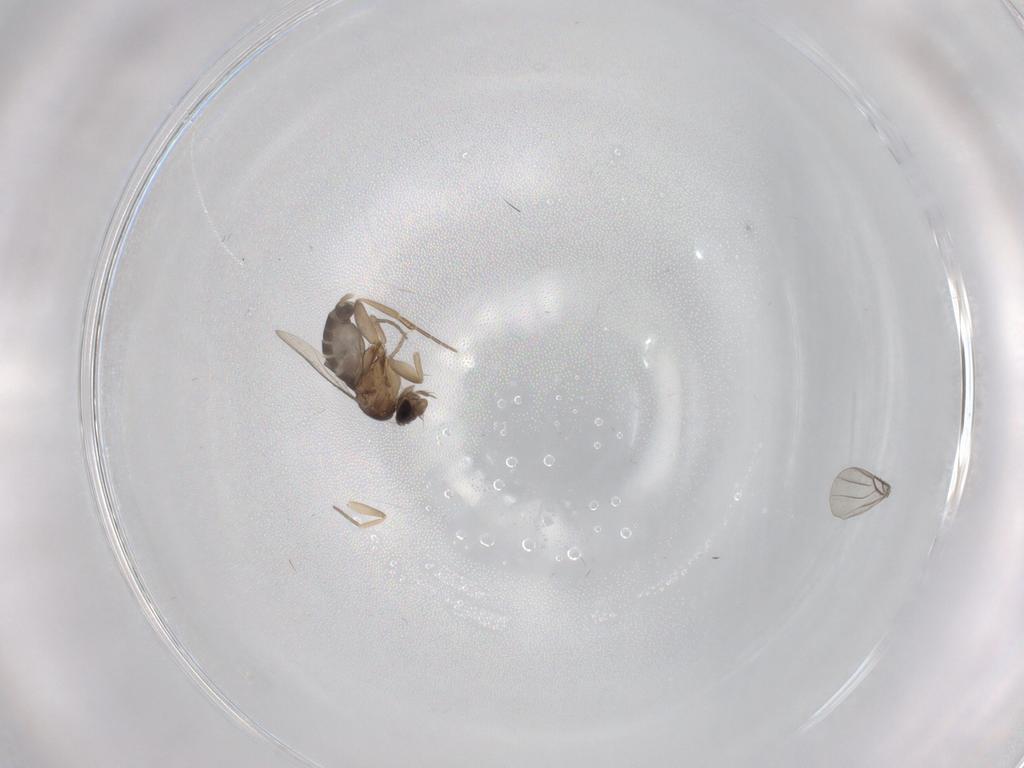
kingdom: Animalia
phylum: Arthropoda
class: Insecta
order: Diptera
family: Phoridae
